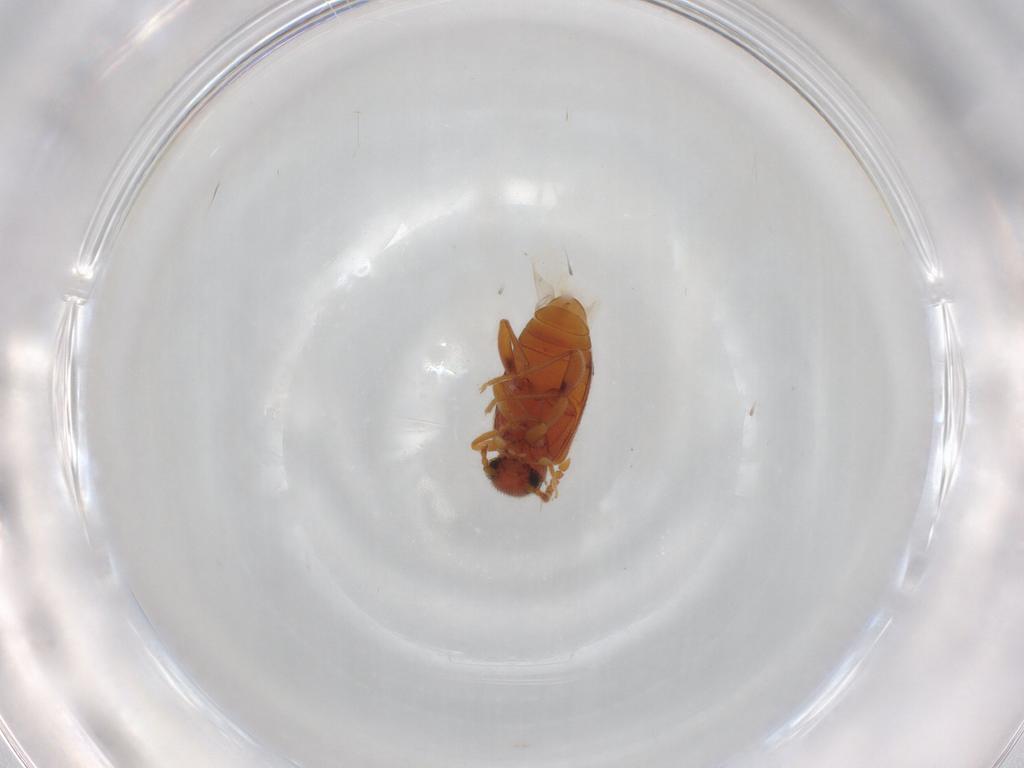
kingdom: Animalia
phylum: Arthropoda
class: Insecta
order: Coleoptera
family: Aderidae
